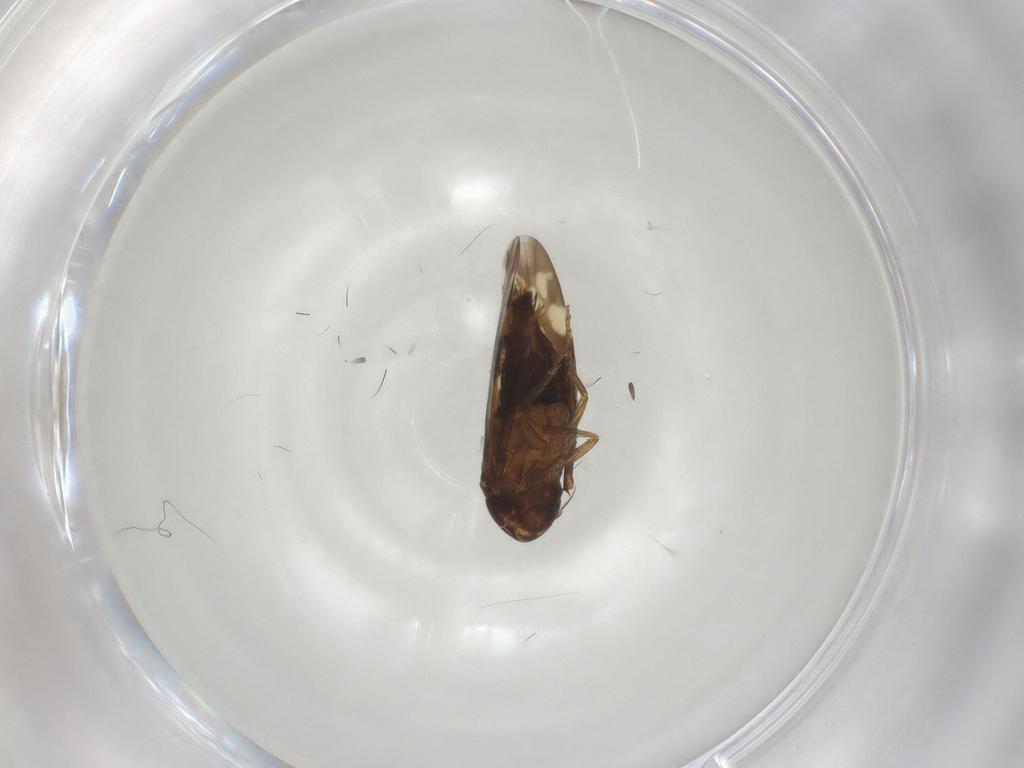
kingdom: Animalia
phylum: Arthropoda
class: Insecta
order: Hemiptera
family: Cicadellidae
